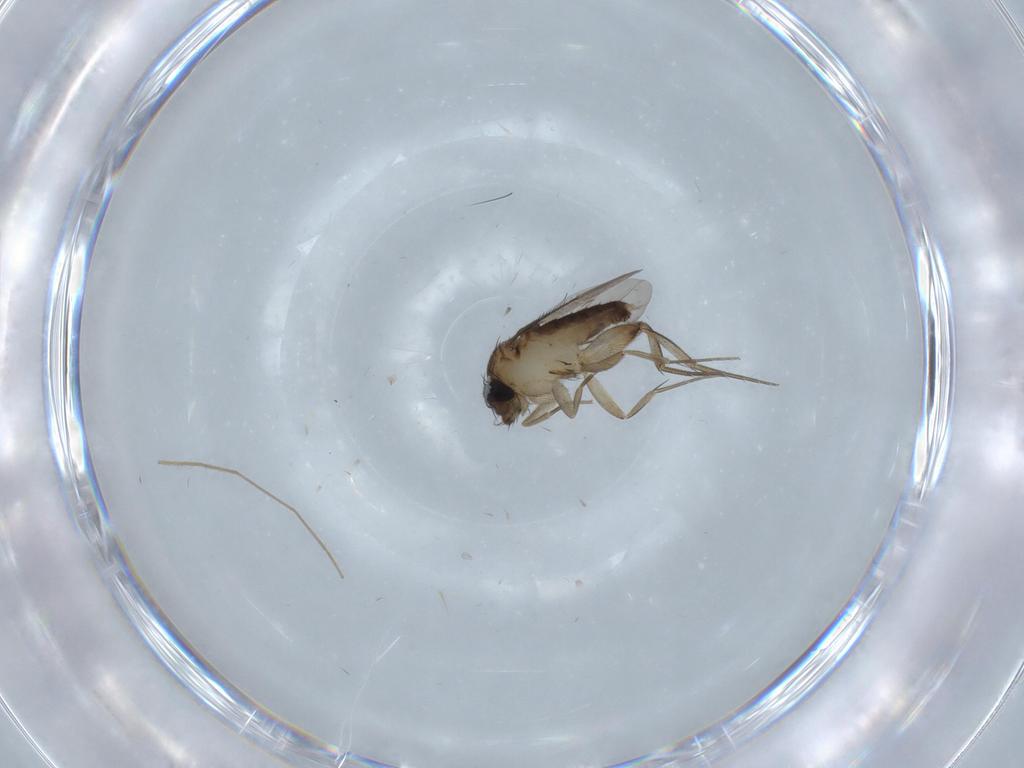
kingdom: Animalia
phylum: Arthropoda
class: Insecta
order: Diptera
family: Phoridae
